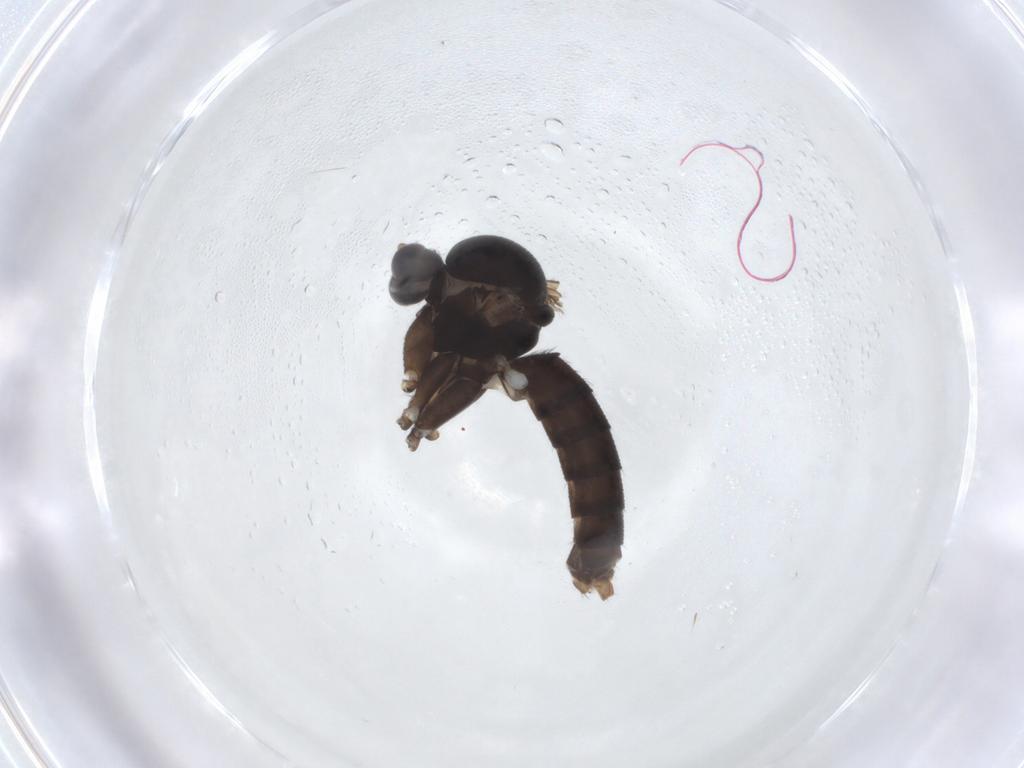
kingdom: Animalia
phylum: Arthropoda
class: Insecta
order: Diptera
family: Mycetophilidae
